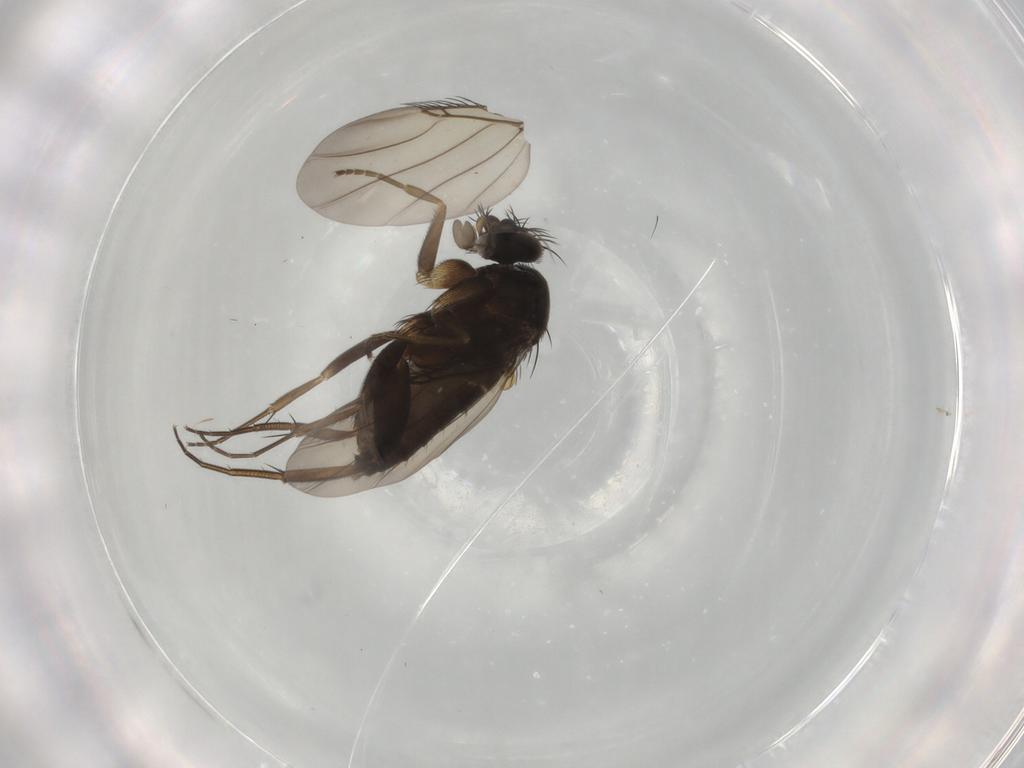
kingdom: Animalia
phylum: Arthropoda
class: Insecta
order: Diptera
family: Phoridae
